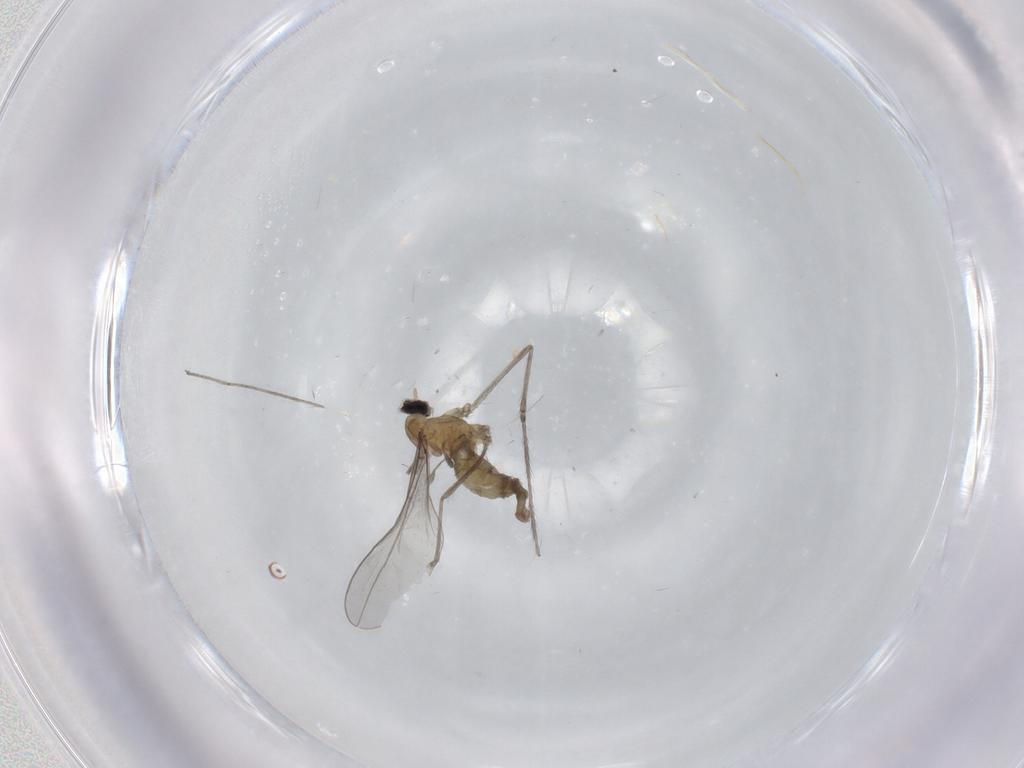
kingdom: Animalia
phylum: Arthropoda
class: Insecta
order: Diptera
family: Cecidomyiidae
